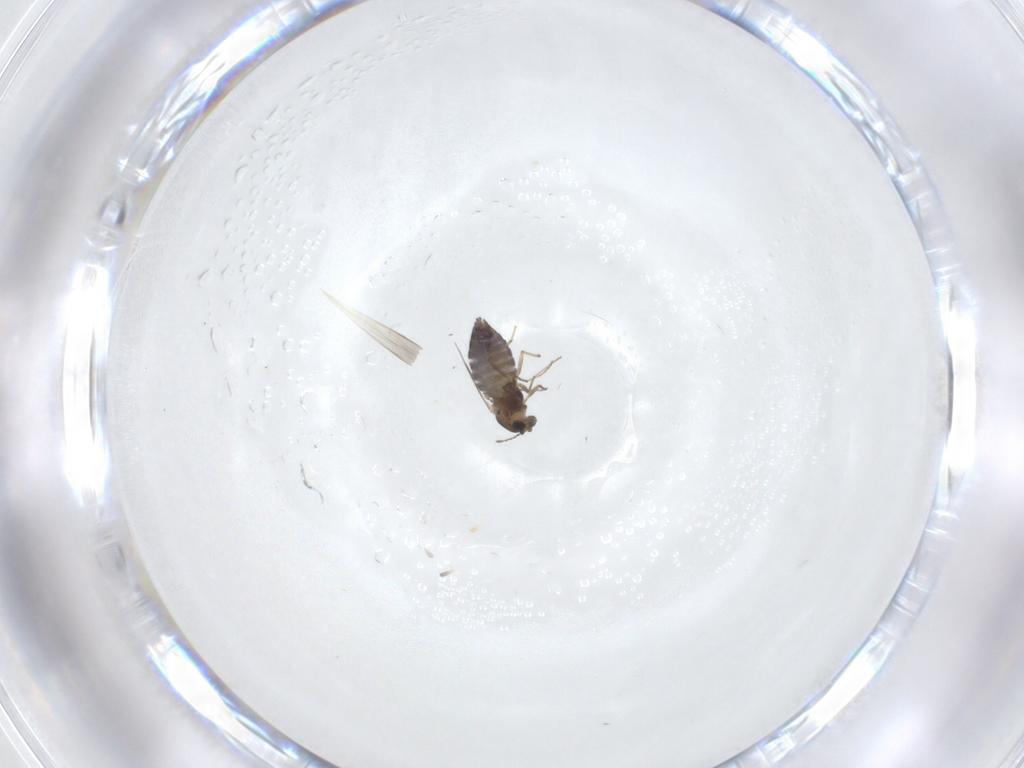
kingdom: Animalia
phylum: Arthropoda
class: Insecta
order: Diptera
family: Chironomidae
